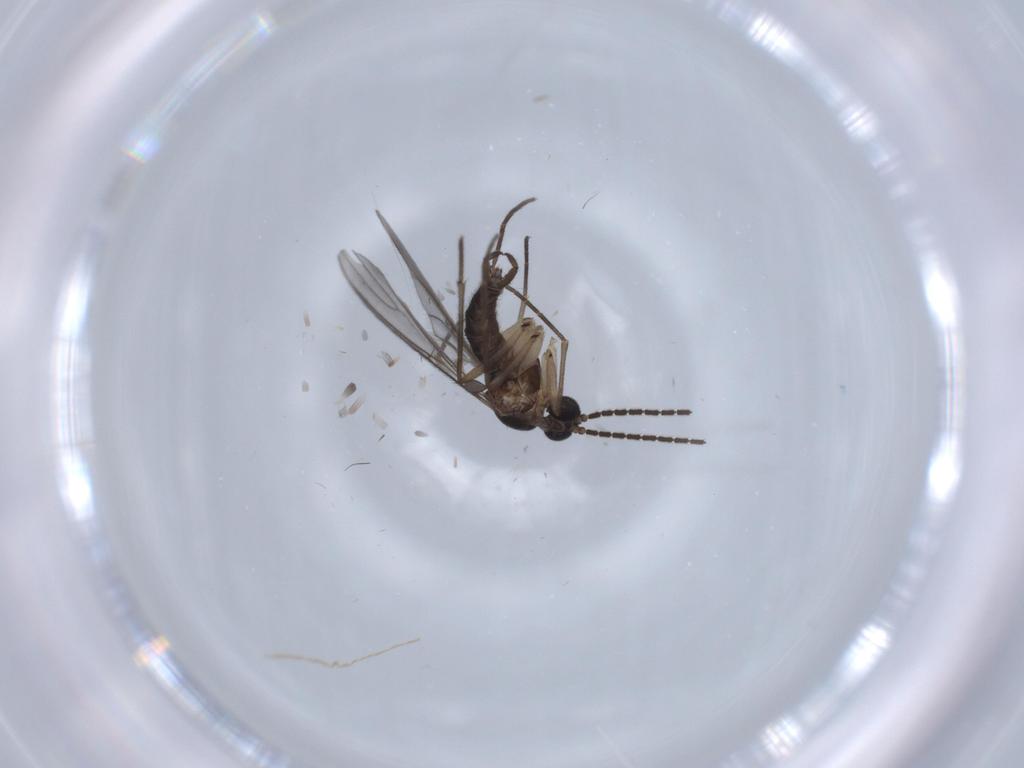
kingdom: Animalia
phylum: Arthropoda
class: Insecta
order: Diptera
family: Sciaridae
